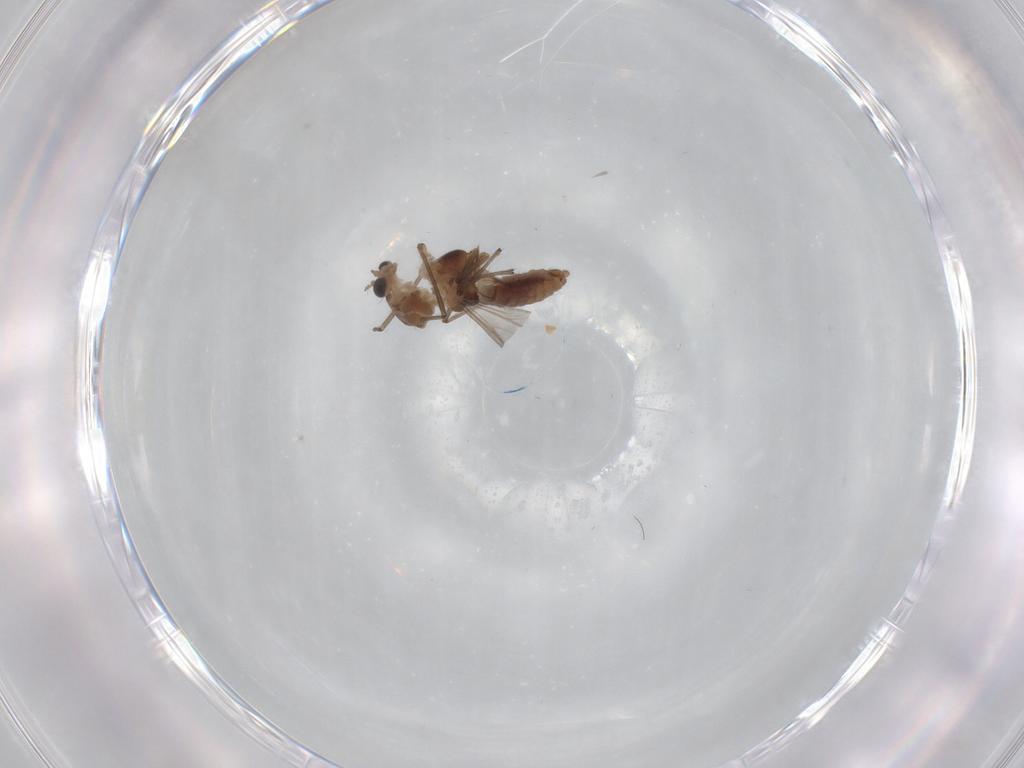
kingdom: Animalia
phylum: Arthropoda
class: Insecta
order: Diptera
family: Chironomidae
